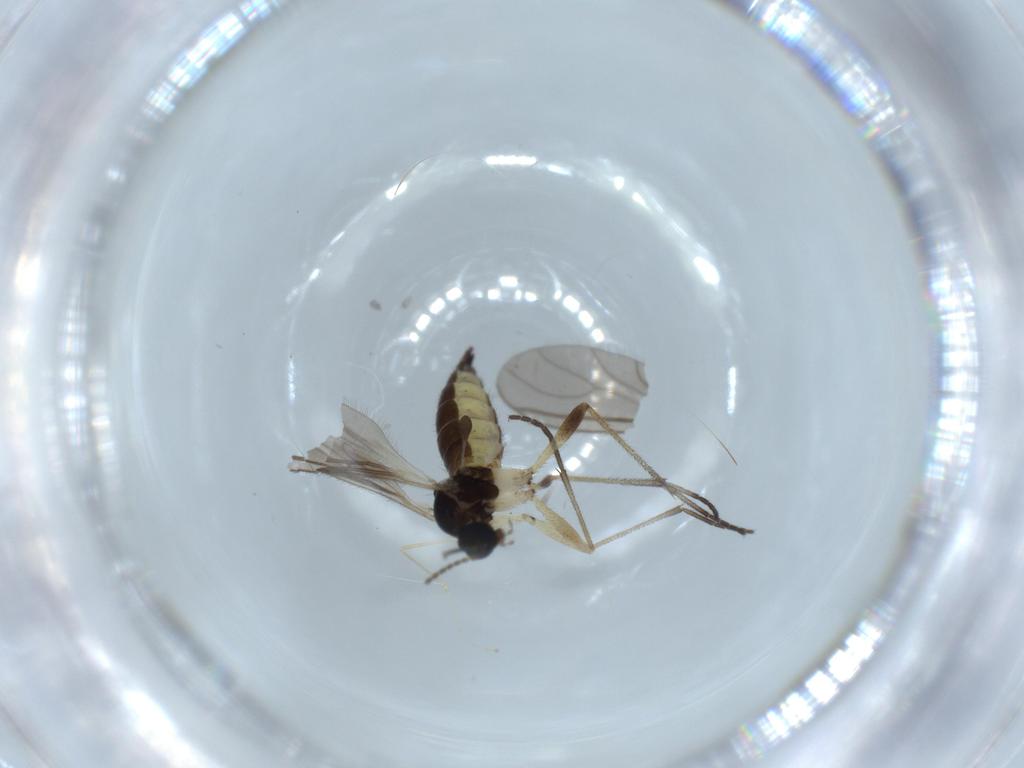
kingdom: Animalia
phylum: Arthropoda
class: Insecta
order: Diptera
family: Sciaridae
